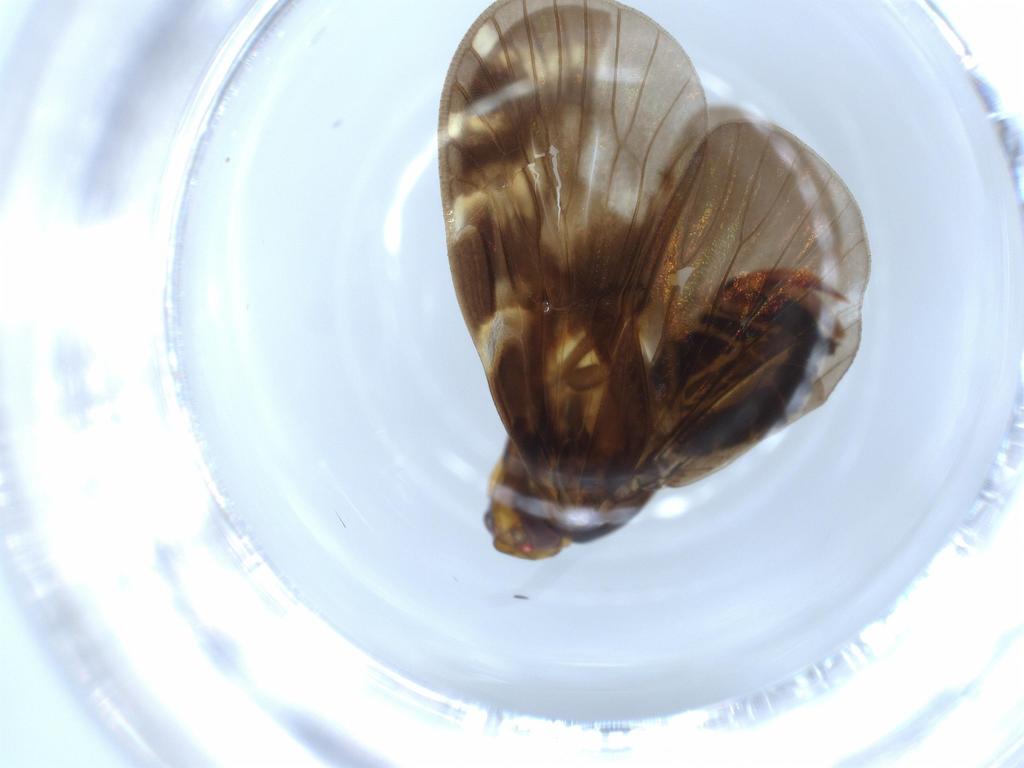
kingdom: Animalia
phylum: Arthropoda
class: Insecta
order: Hemiptera
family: Cixiidae
